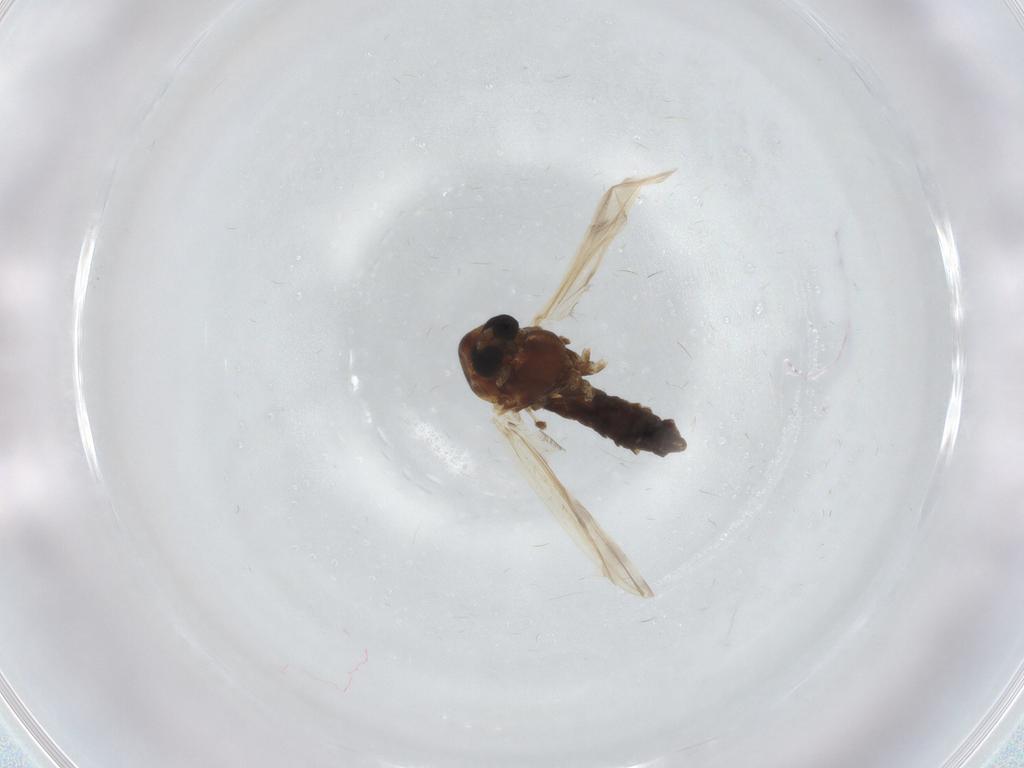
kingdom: Animalia
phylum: Arthropoda
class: Insecta
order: Diptera
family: Chironomidae
